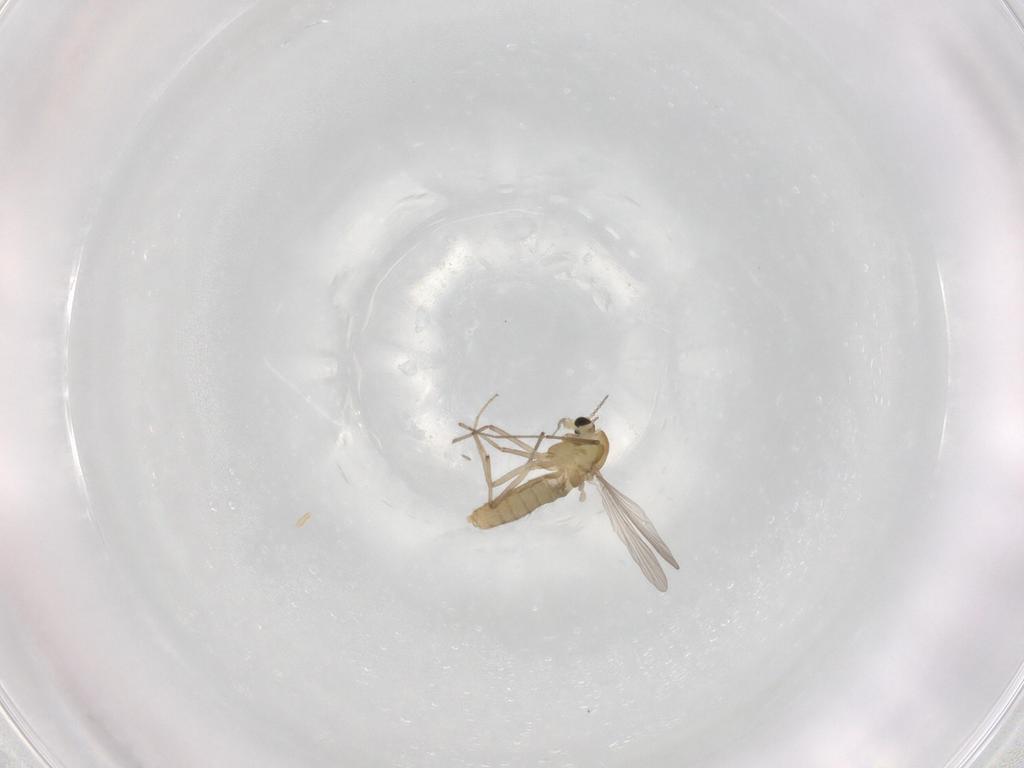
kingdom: Animalia
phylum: Arthropoda
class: Insecta
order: Diptera
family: Chironomidae
